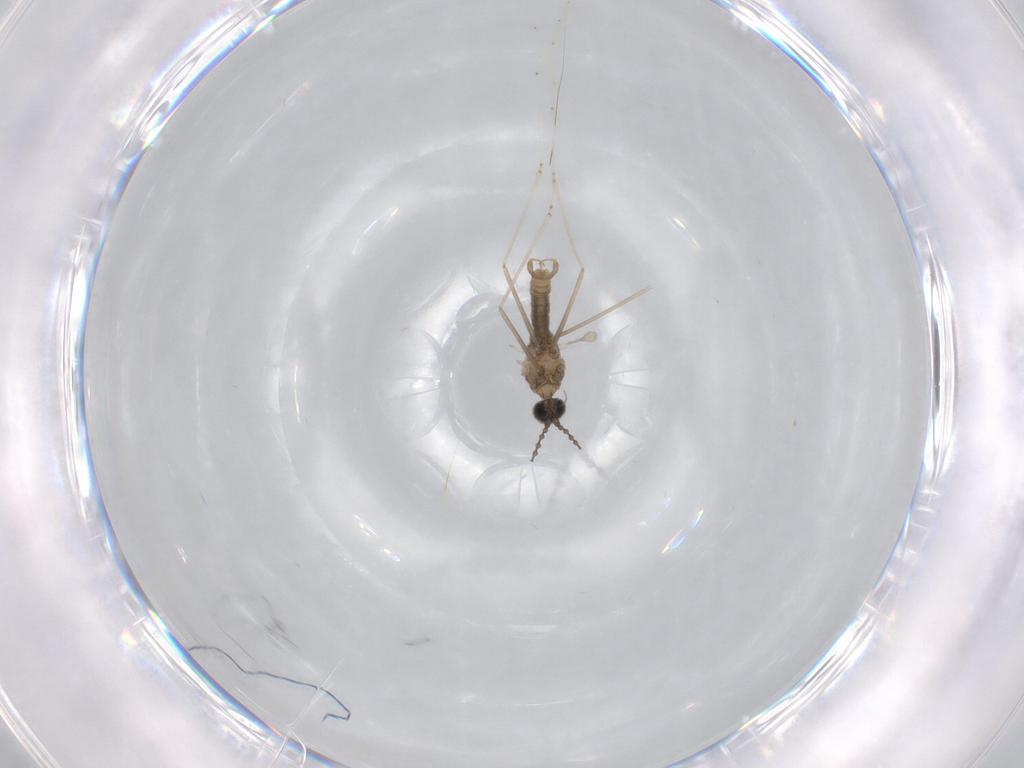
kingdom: Animalia
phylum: Arthropoda
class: Insecta
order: Diptera
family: Cecidomyiidae
